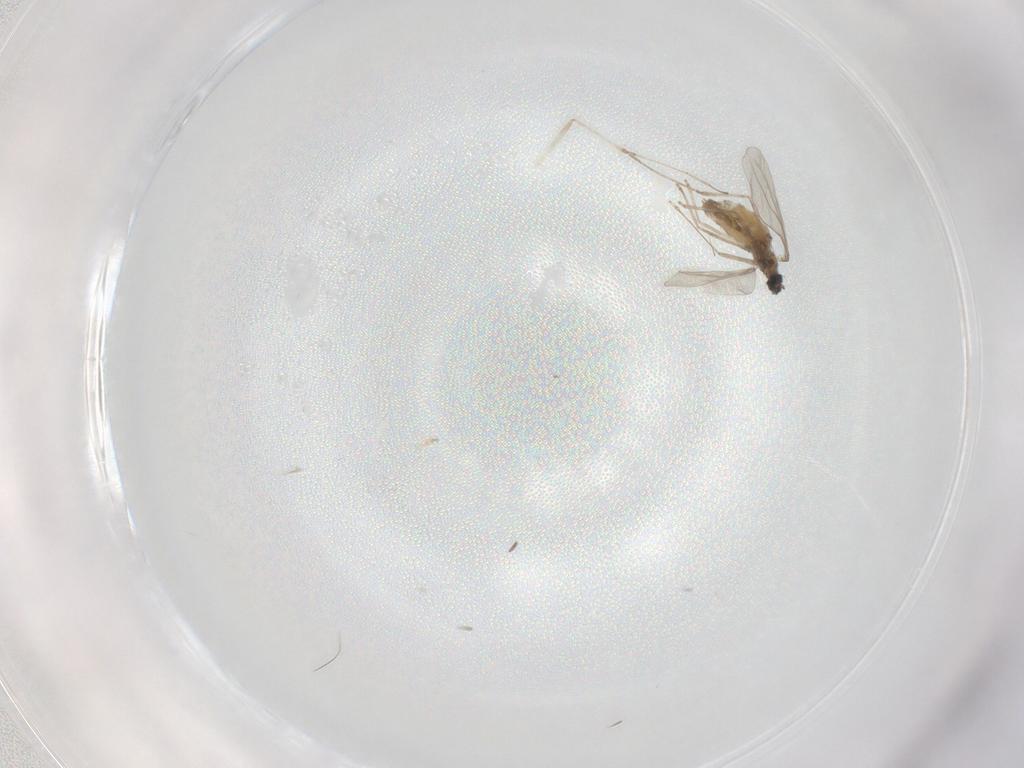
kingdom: Animalia
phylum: Arthropoda
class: Insecta
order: Diptera
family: Cecidomyiidae
